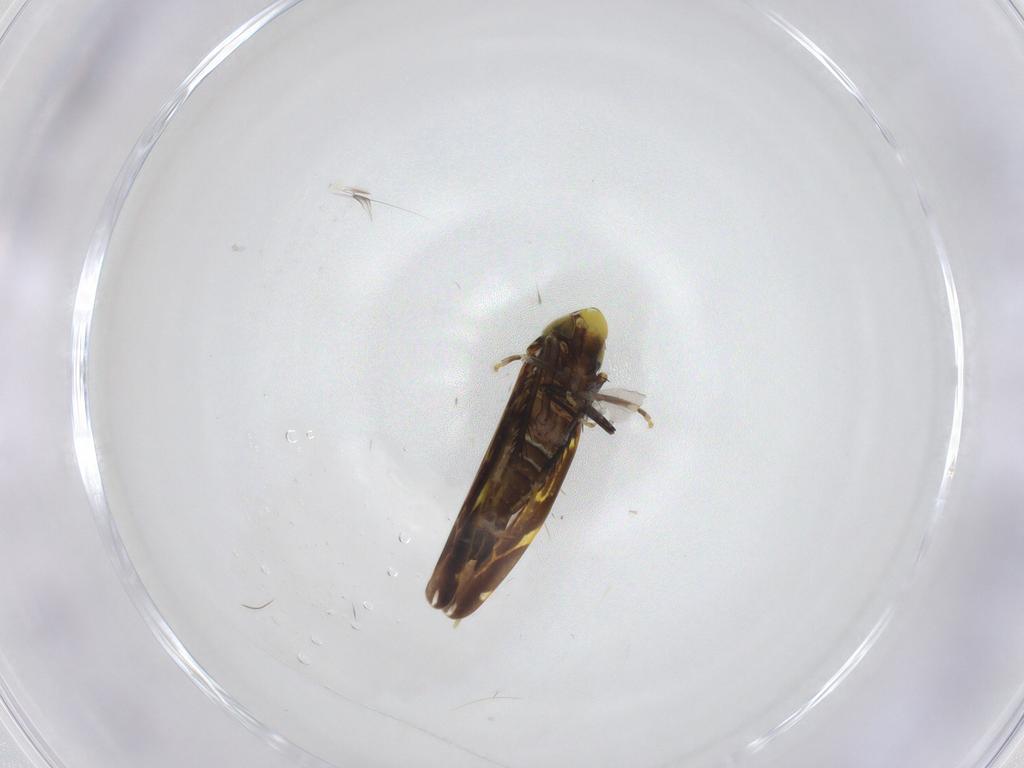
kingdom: Animalia
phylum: Arthropoda
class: Insecta
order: Hemiptera
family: Cicadellidae
